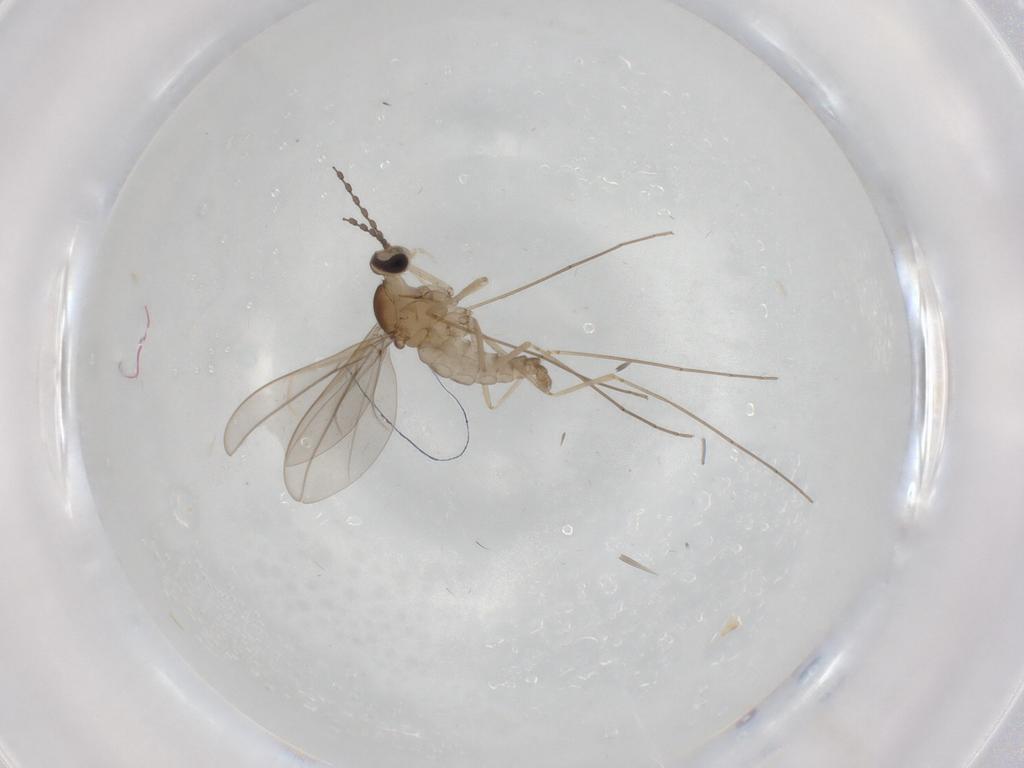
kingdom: Animalia
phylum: Arthropoda
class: Insecta
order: Diptera
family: Cecidomyiidae
